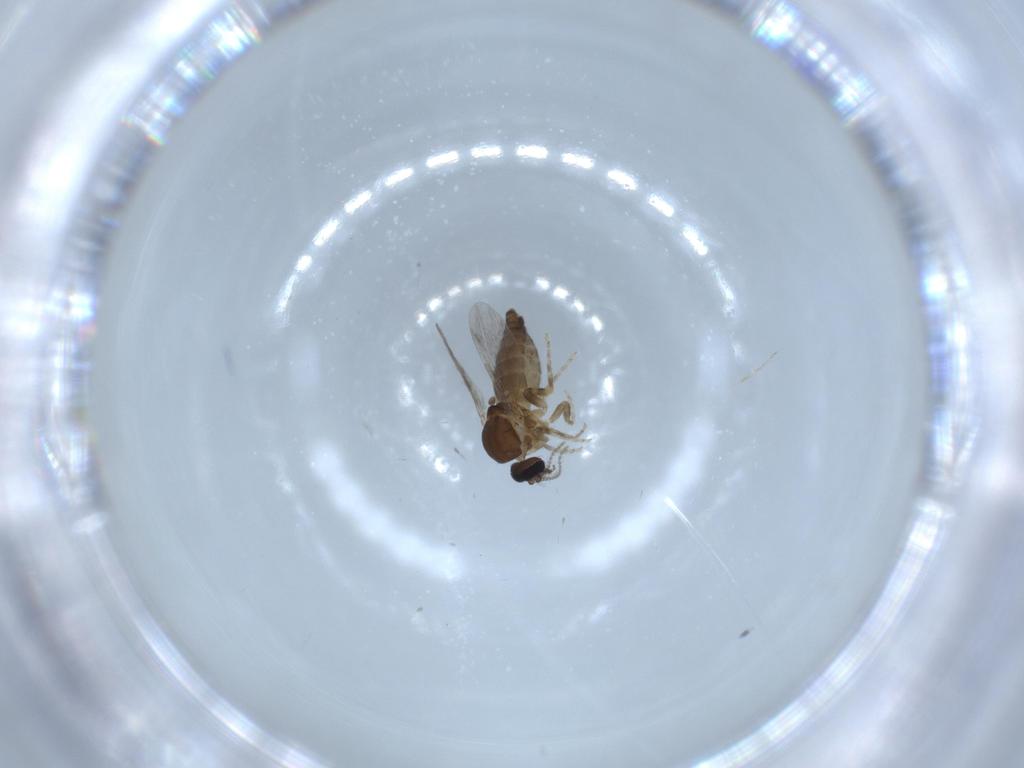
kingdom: Animalia
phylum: Arthropoda
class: Insecta
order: Diptera
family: Ceratopogonidae
